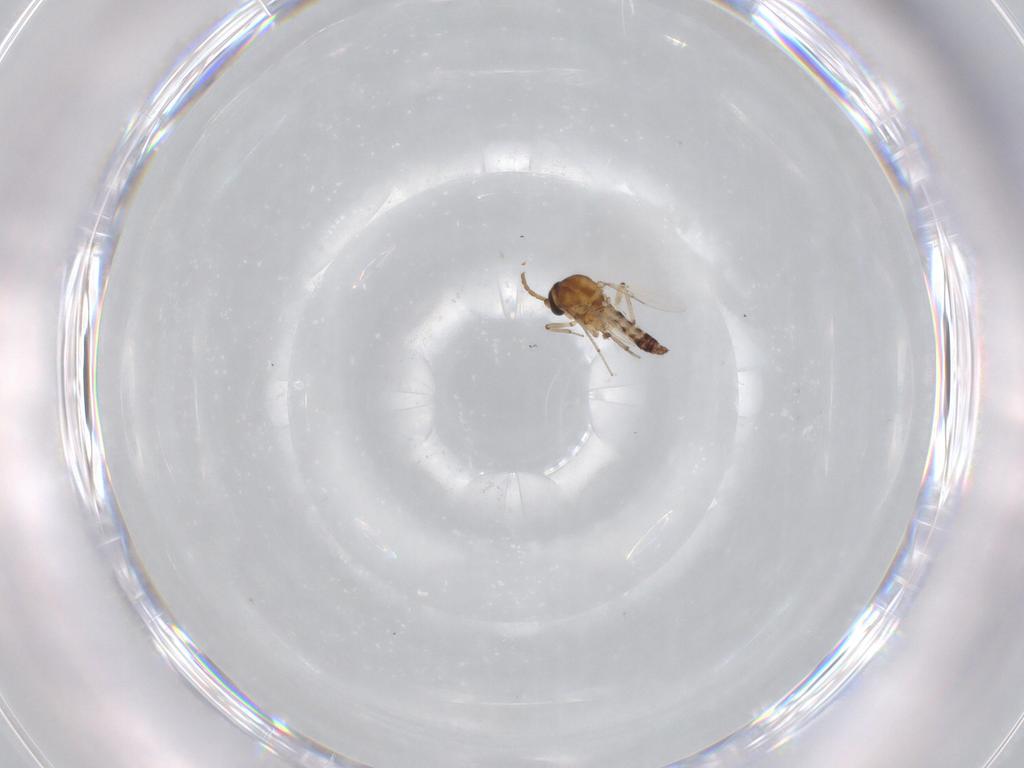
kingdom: Animalia
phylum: Arthropoda
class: Insecta
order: Diptera
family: Ceratopogonidae
